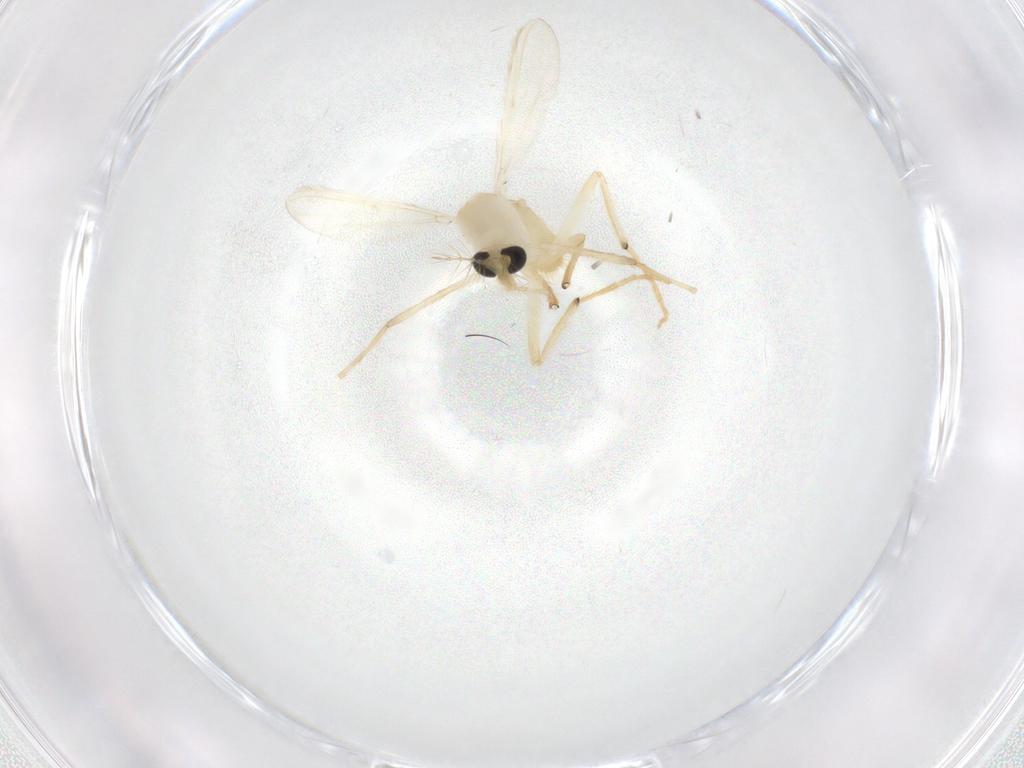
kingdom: Animalia
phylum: Arthropoda
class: Insecta
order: Diptera
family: Chironomidae
